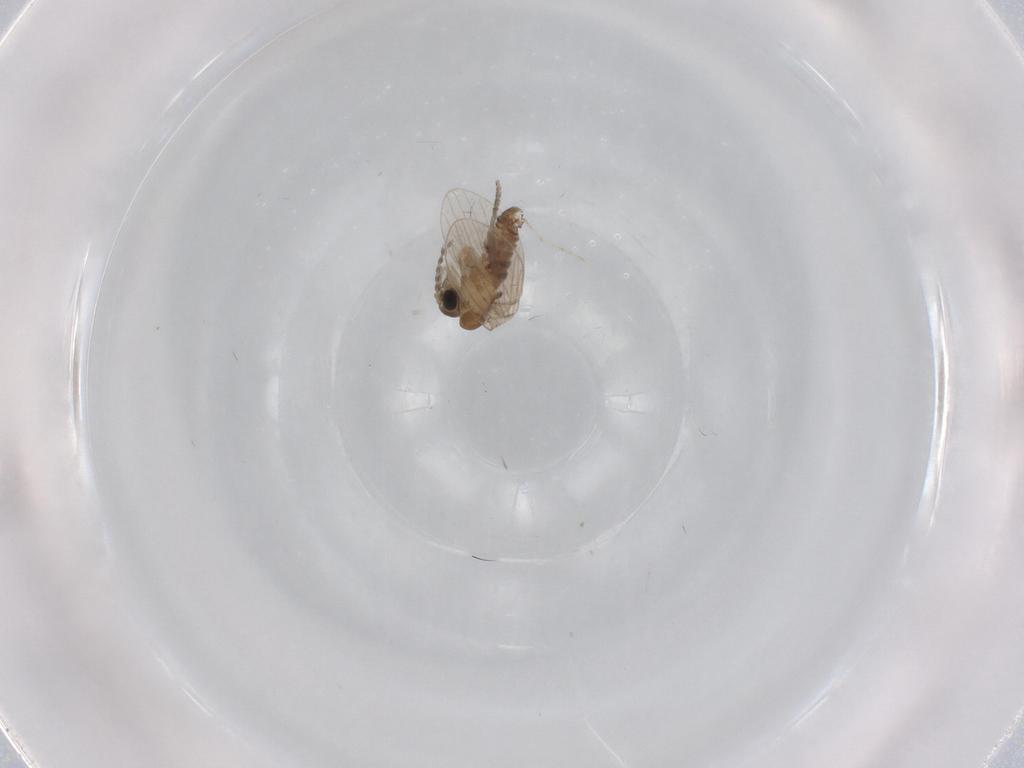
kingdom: Animalia
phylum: Arthropoda
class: Insecta
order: Diptera
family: Cecidomyiidae
